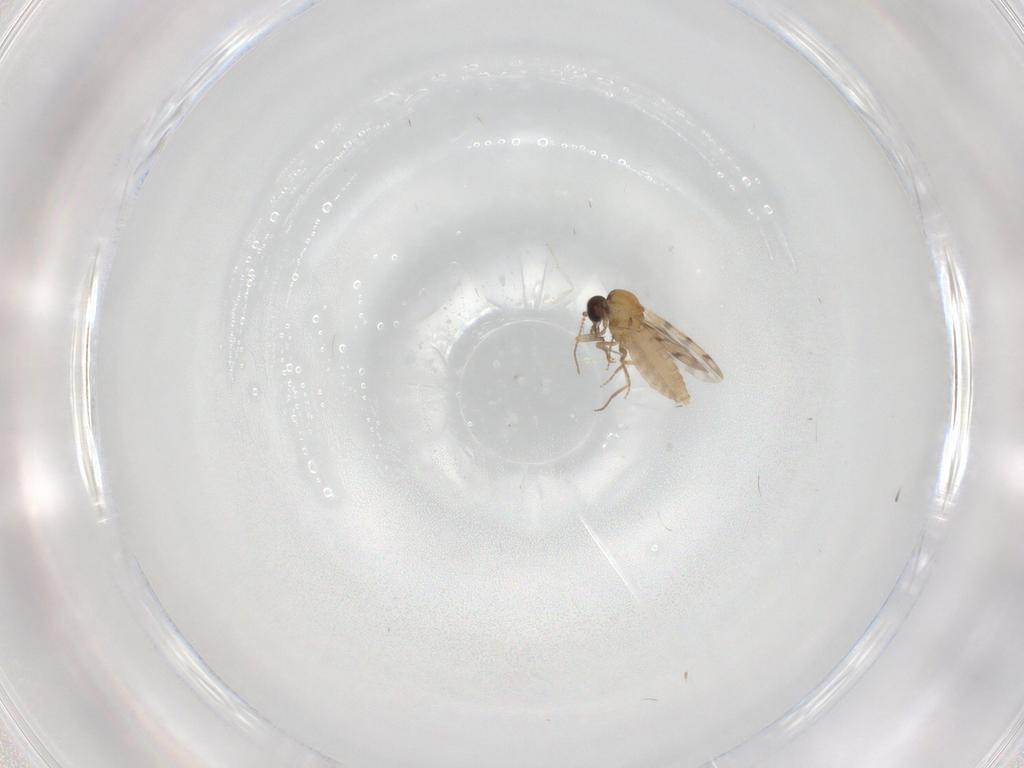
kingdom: Animalia
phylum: Arthropoda
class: Insecta
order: Diptera
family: Ceratopogonidae
